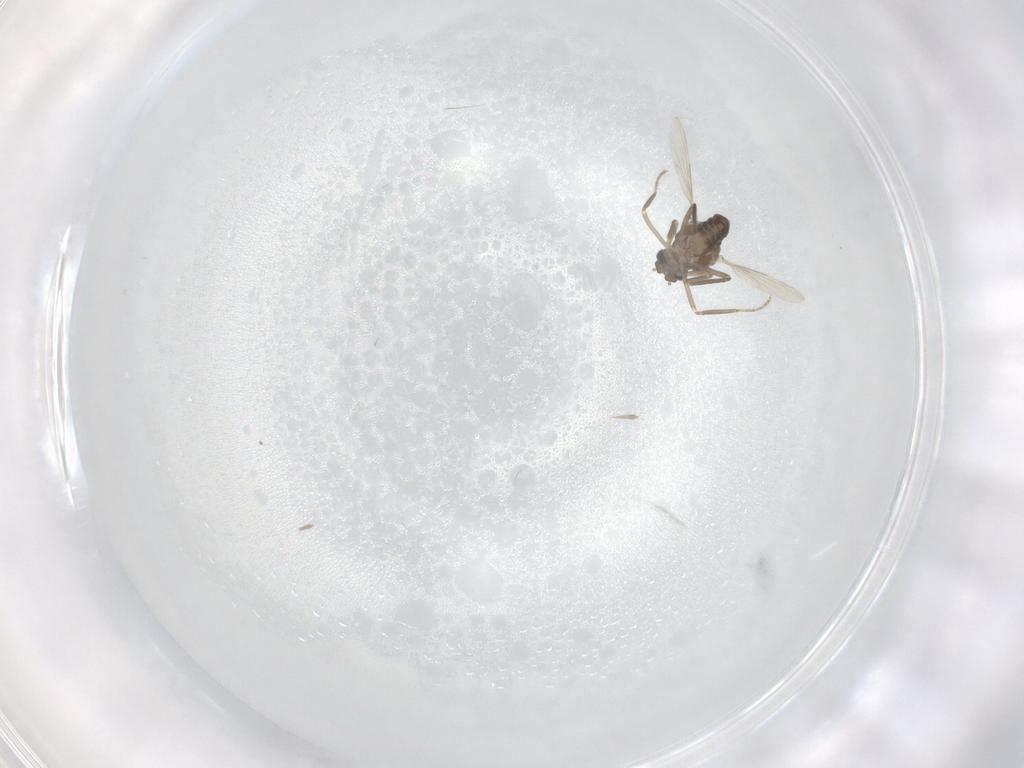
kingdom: Animalia
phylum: Arthropoda
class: Insecta
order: Diptera
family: Ceratopogonidae
